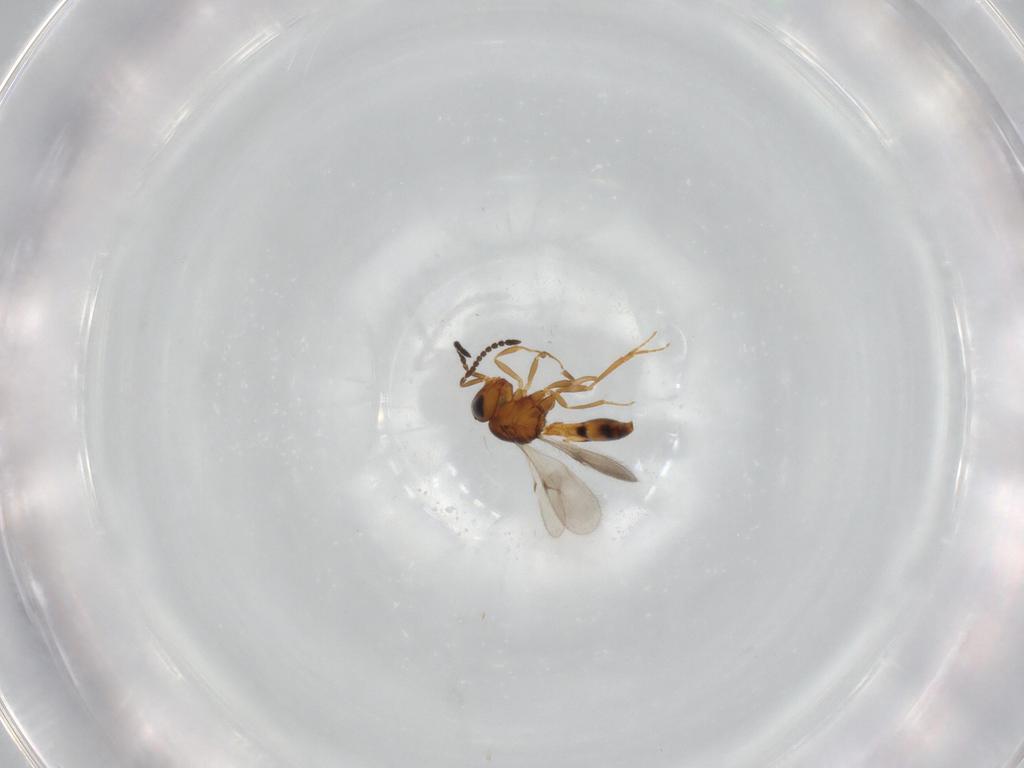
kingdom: Animalia
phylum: Arthropoda
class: Insecta
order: Hymenoptera
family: Scelionidae
